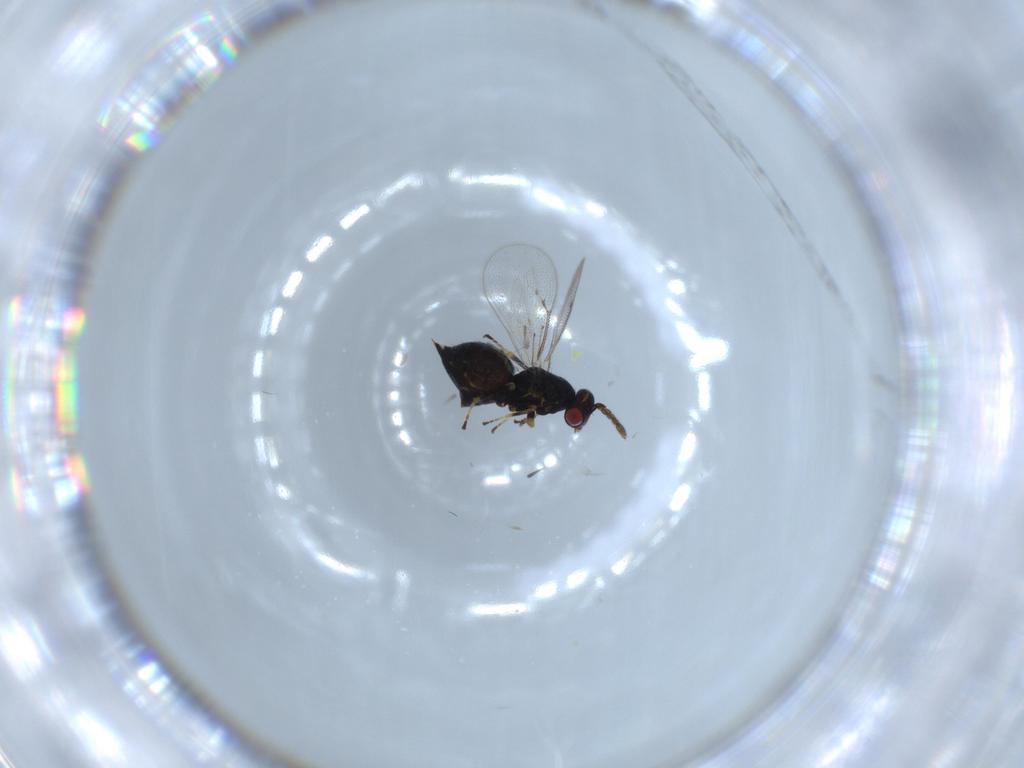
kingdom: Animalia
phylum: Arthropoda
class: Insecta
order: Hymenoptera
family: Eulophidae
